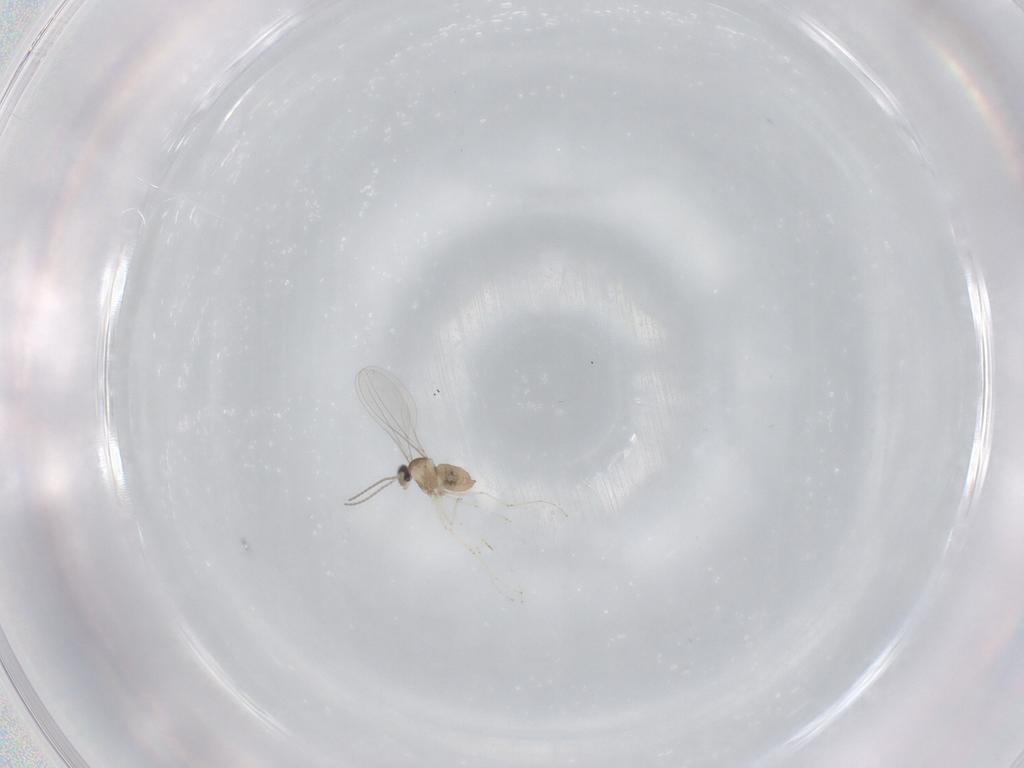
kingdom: Animalia
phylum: Arthropoda
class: Insecta
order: Diptera
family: Cecidomyiidae
